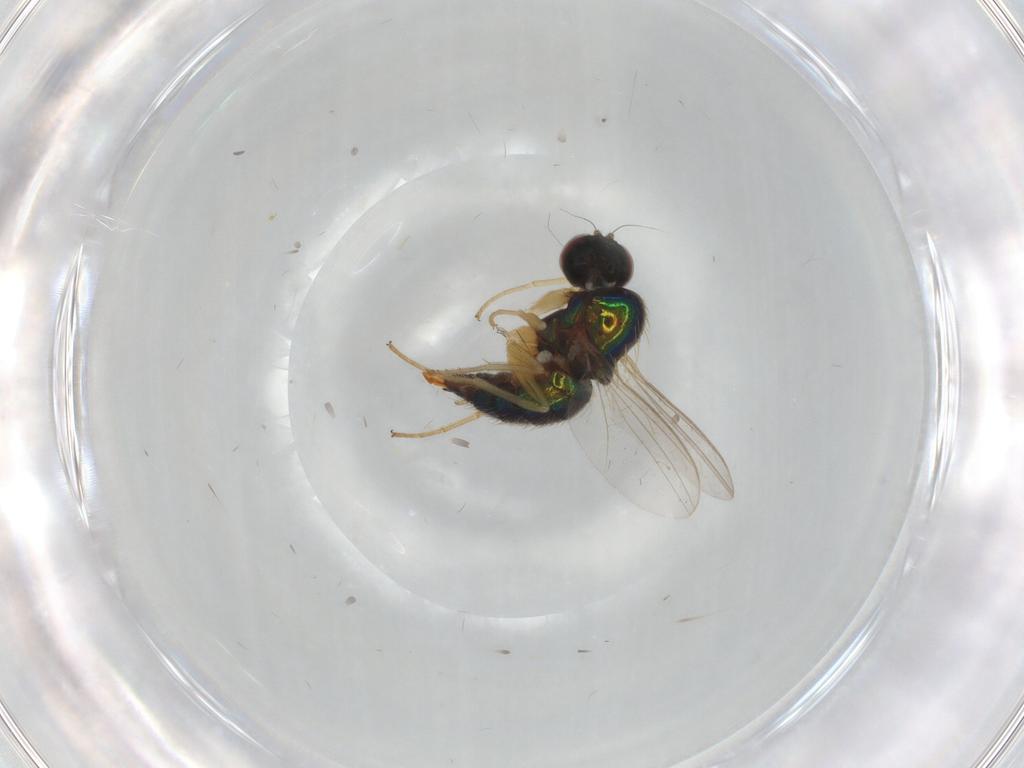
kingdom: Animalia
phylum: Arthropoda
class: Insecta
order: Diptera
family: Dolichopodidae
